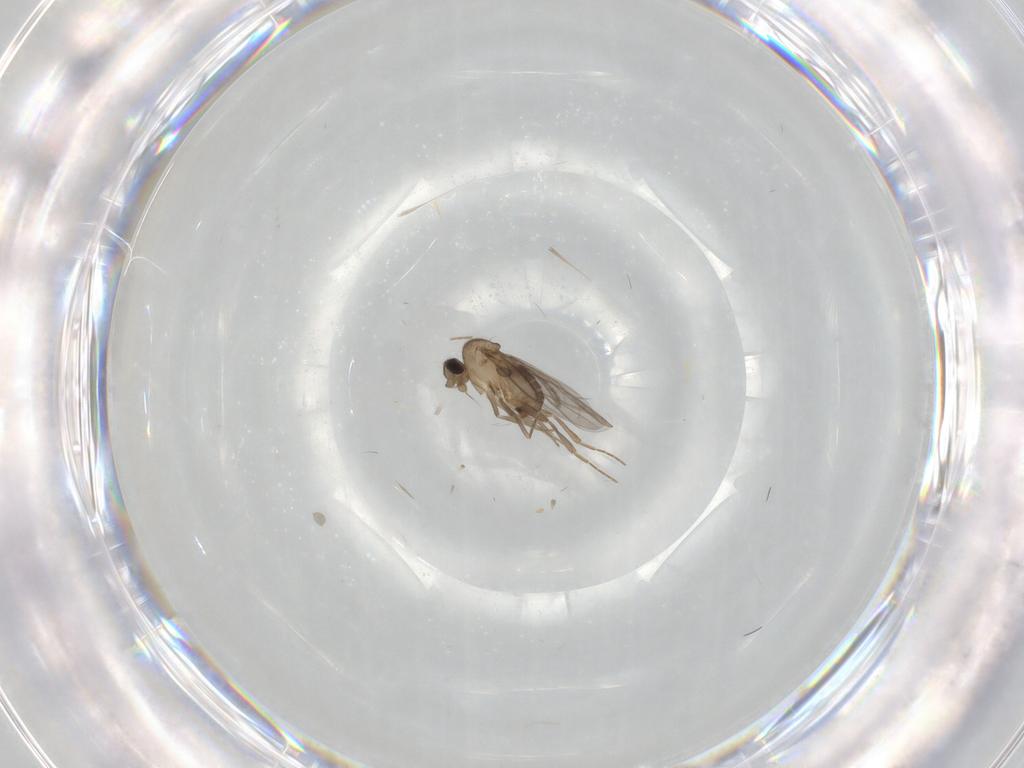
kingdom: Animalia
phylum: Arthropoda
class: Insecta
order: Diptera
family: Chironomidae
